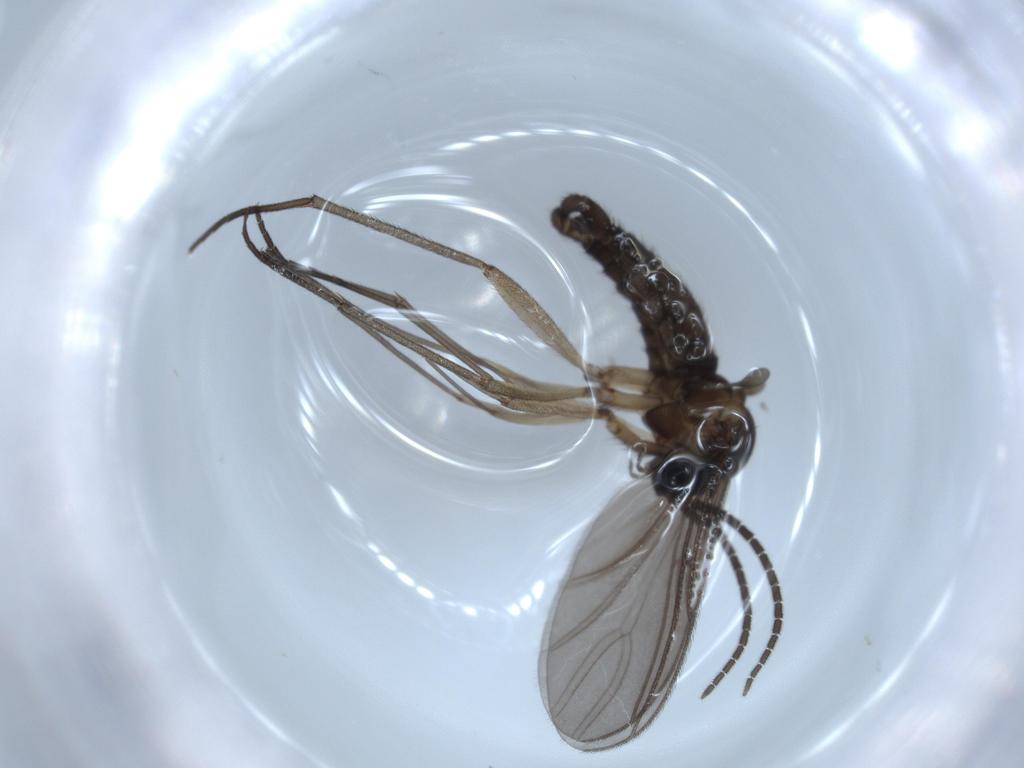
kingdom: Animalia
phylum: Arthropoda
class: Insecta
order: Diptera
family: Sciaridae
